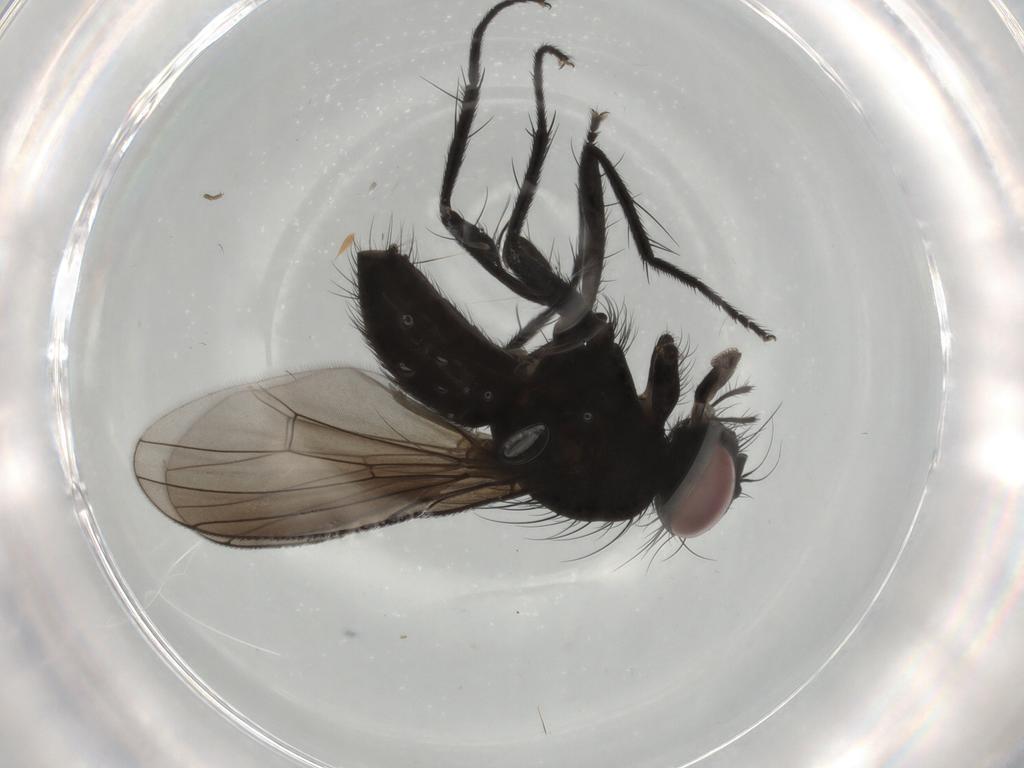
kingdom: Animalia
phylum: Arthropoda
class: Insecta
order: Diptera
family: Muscidae
